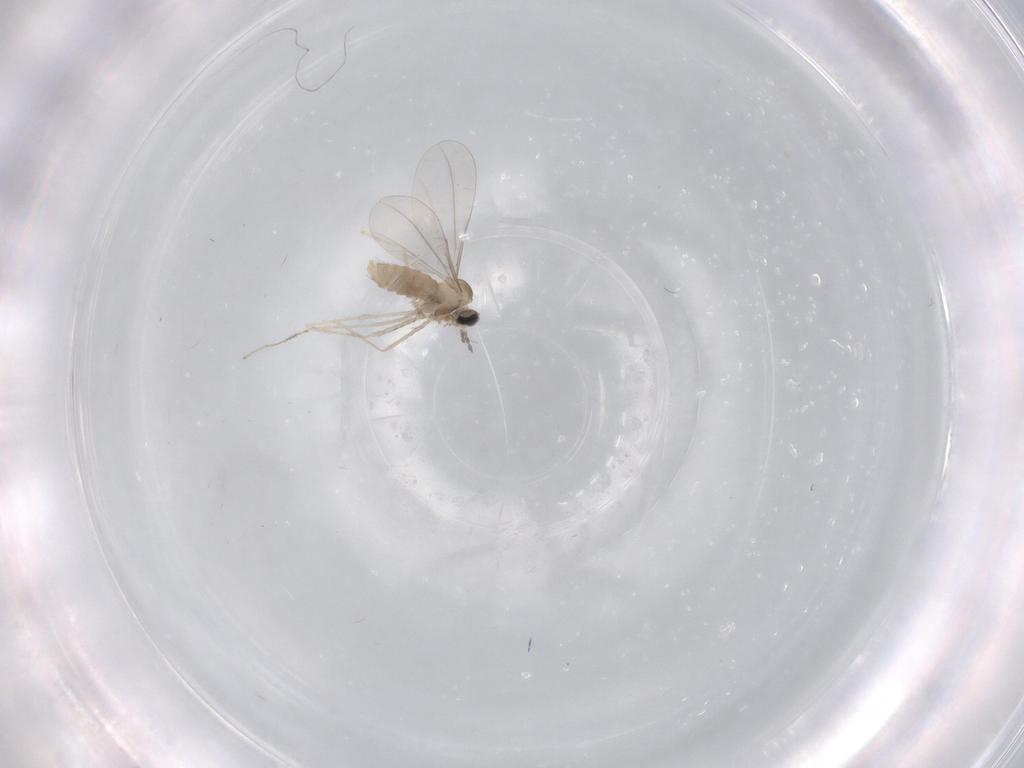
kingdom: Animalia
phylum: Arthropoda
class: Insecta
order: Diptera
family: Cecidomyiidae
